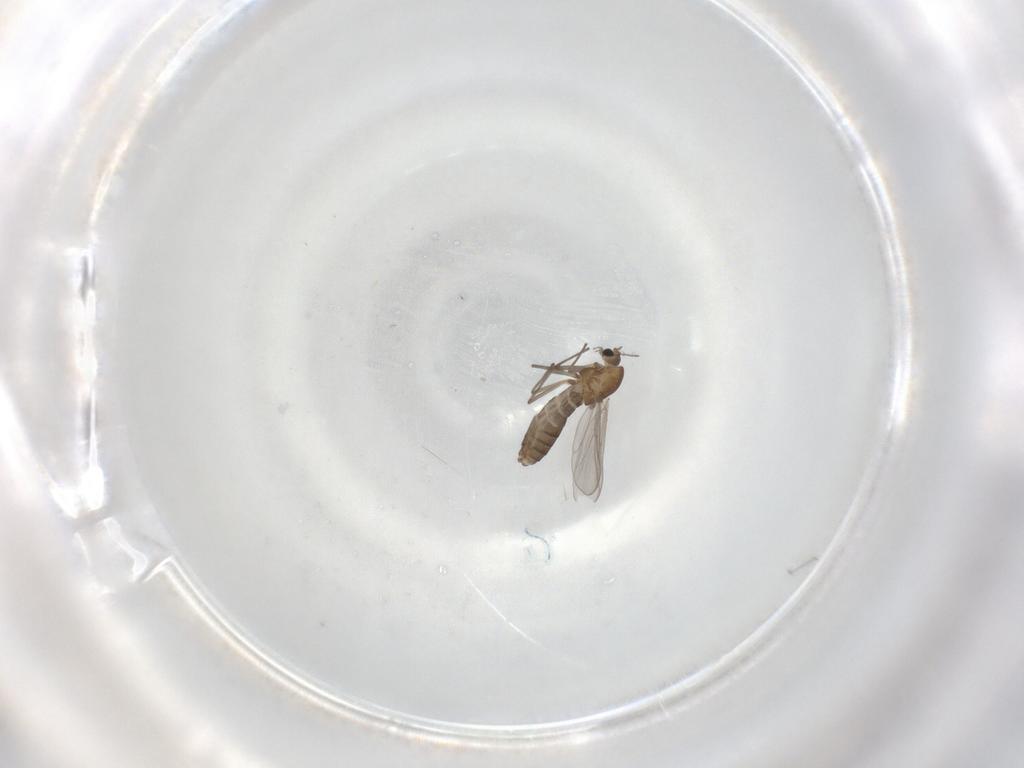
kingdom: Animalia
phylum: Arthropoda
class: Insecta
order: Diptera
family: Chironomidae
